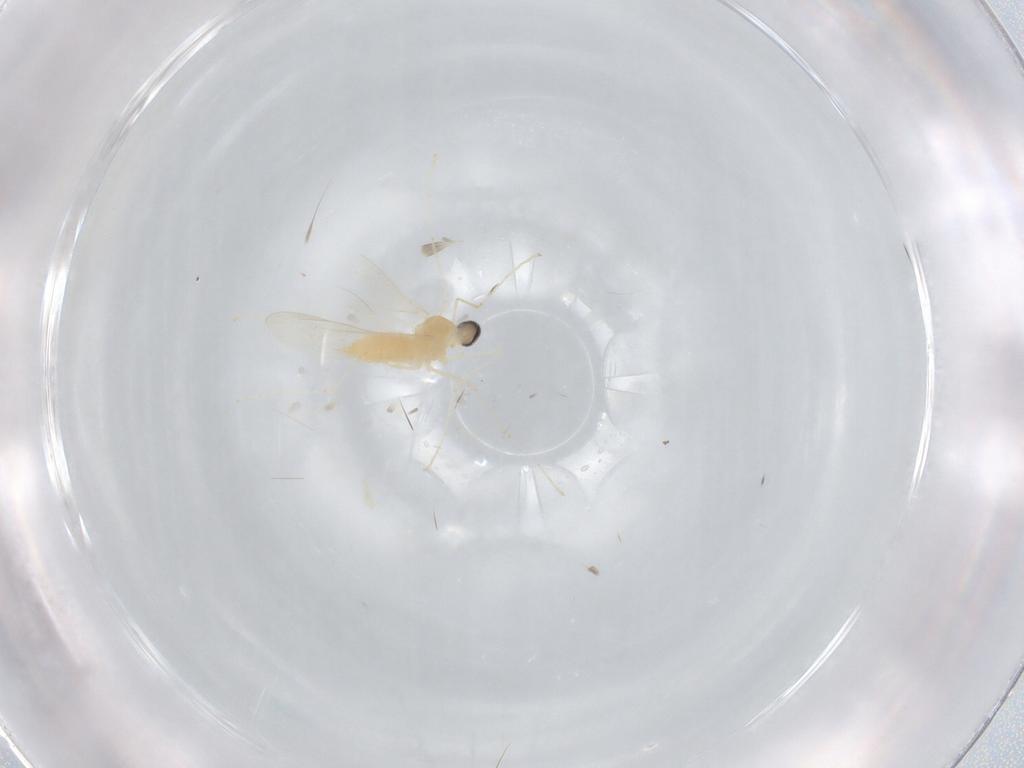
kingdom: Animalia
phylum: Arthropoda
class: Insecta
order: Diptera
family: Cecidomyiidae
